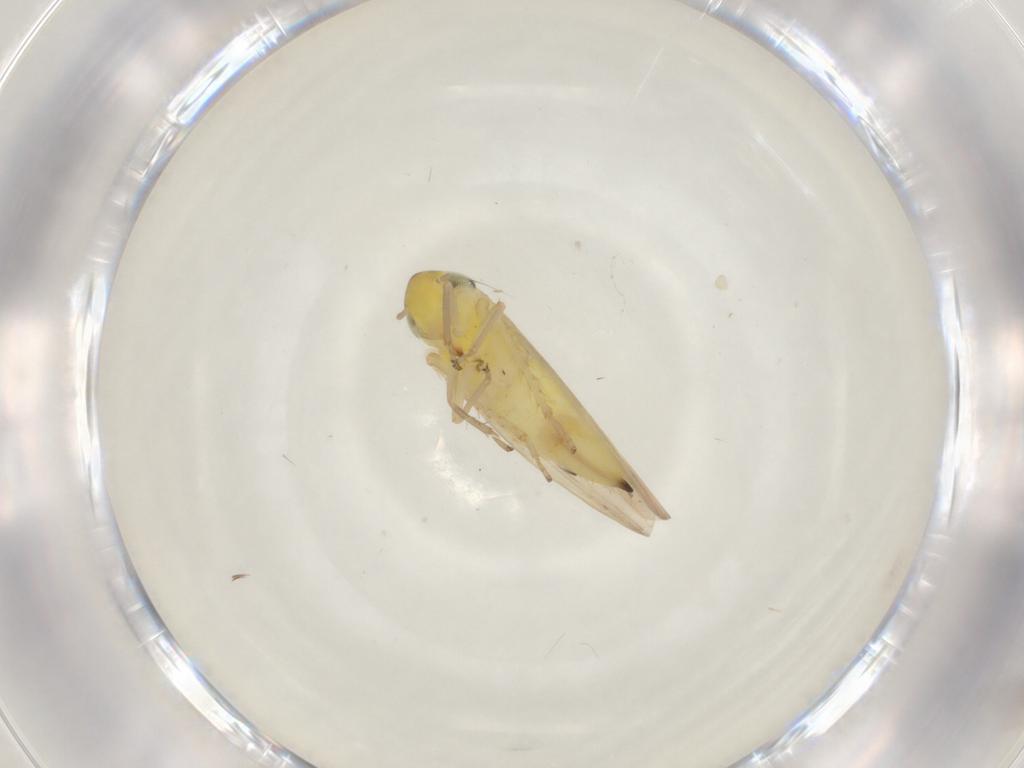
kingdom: Animalia
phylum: Arthropoda
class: Insecta
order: Hemiptera
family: Cicadellidae
